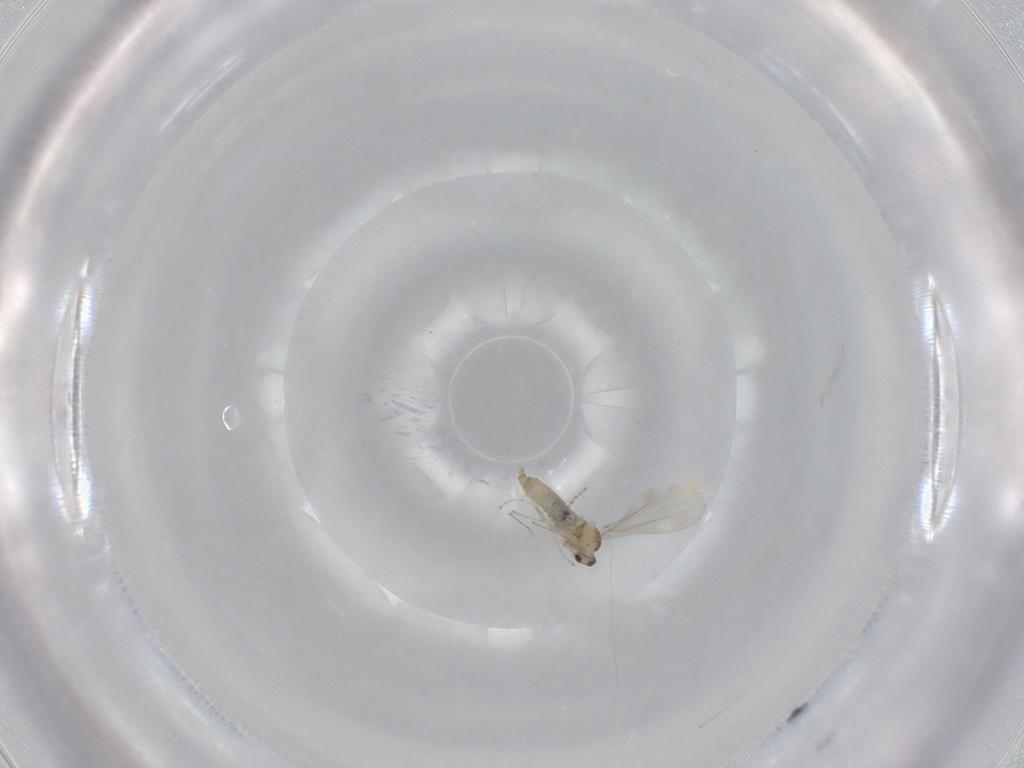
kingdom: Animalia
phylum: Arthropoda
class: Insecta
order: Diptera
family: Cecidomyiidae
